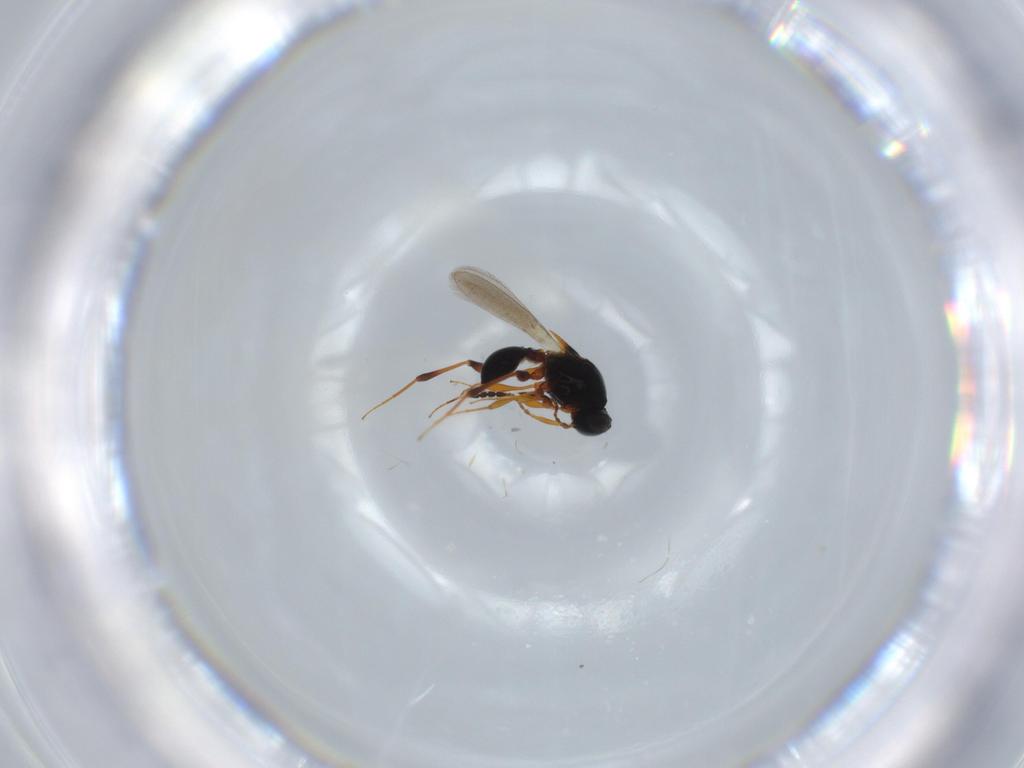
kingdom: Animalia
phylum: Arthropoda
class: Insecta
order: Hymenoptera
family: Platygastridae
